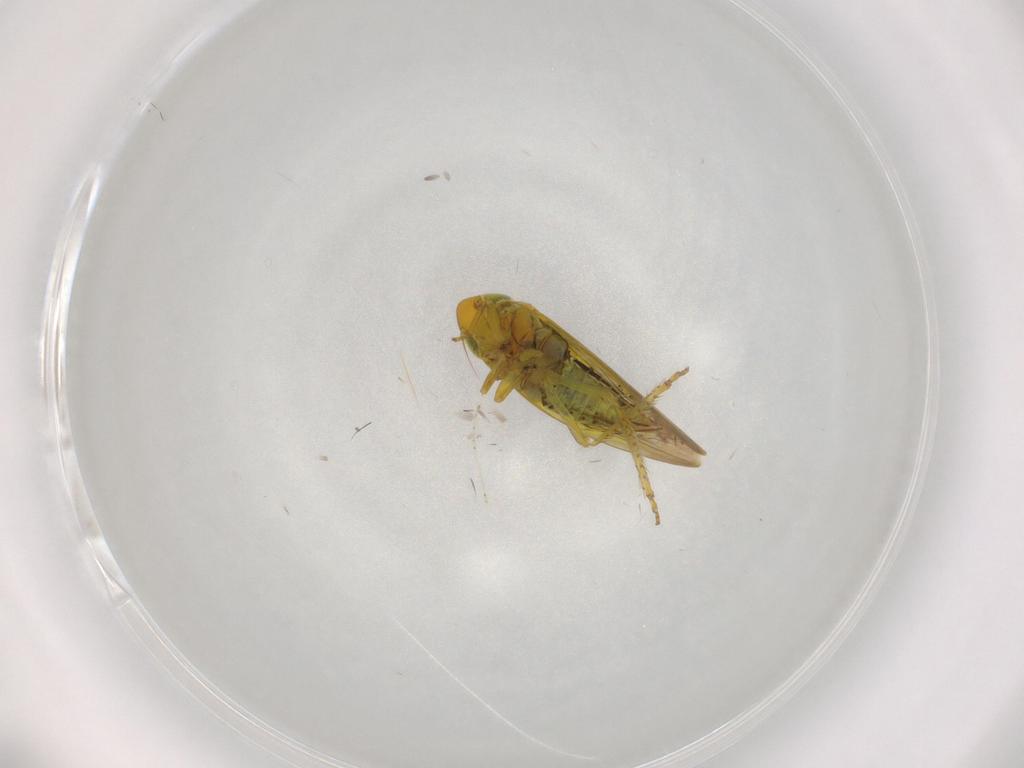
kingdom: Animalia
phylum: Arthropoda
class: Insecta
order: Hemiptera
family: Cicadellidae
